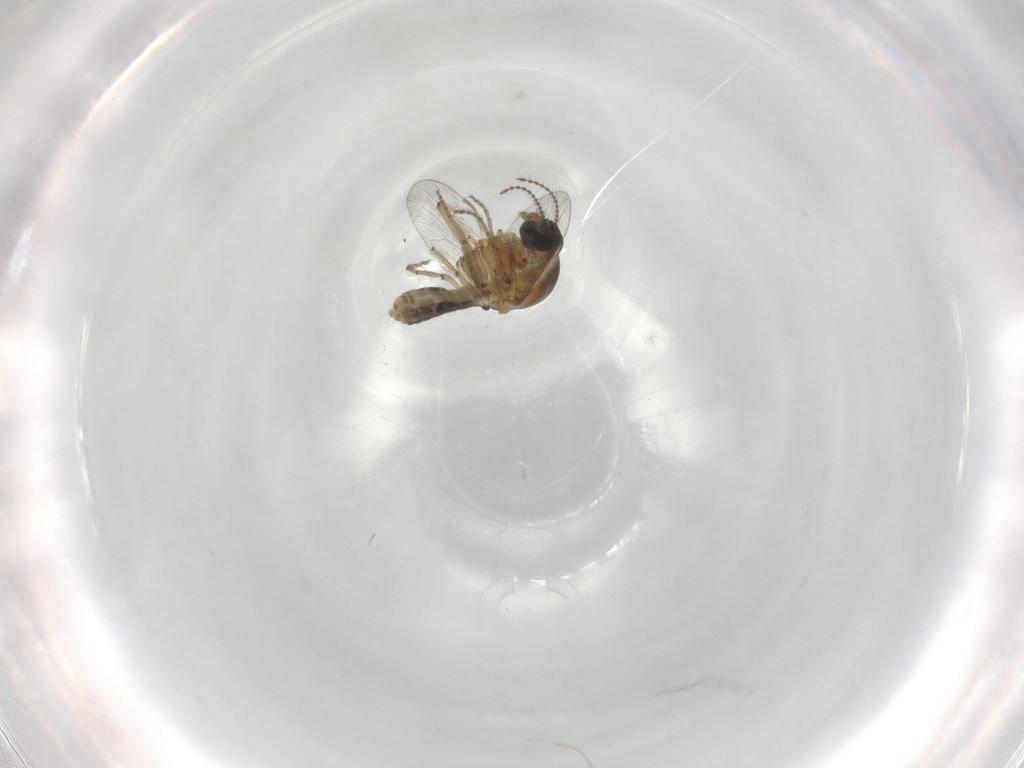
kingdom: Animalia
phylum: Arthropoda
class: Insecta
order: Diptera
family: Ceratopogonidae
